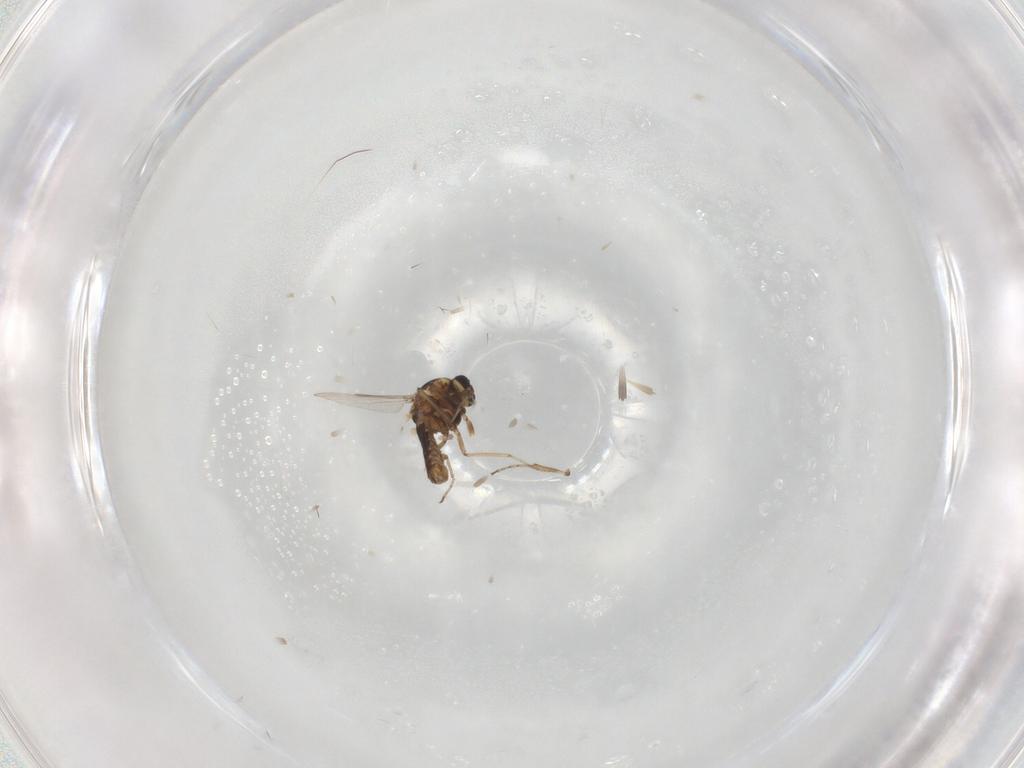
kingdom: Animalia
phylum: Arthropoda
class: Insecta
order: Diptera
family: Ceratopogonidae
